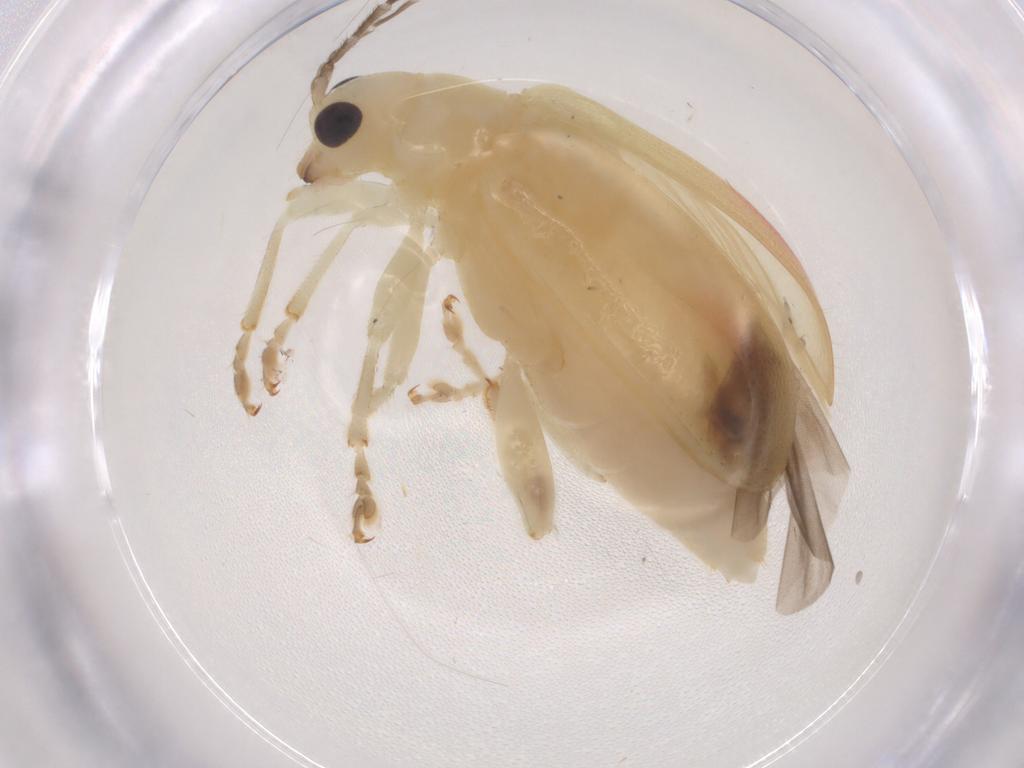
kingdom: Animalia
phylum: Arthropoda
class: Insecta
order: Coleoptera
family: Chrysomelidae
